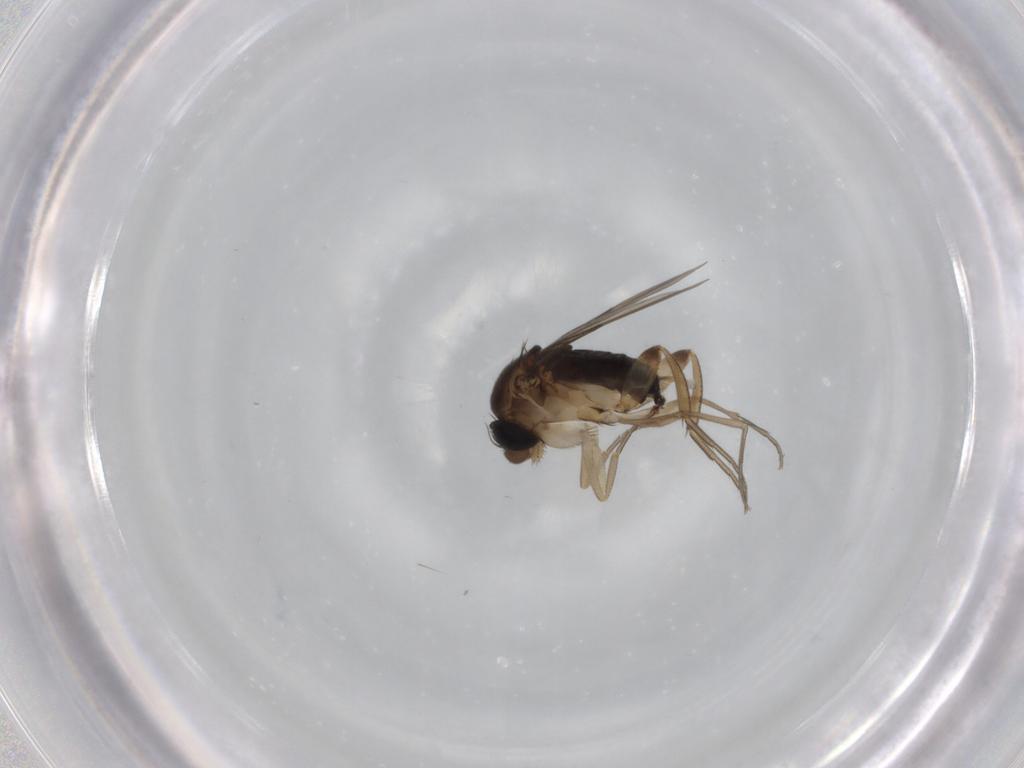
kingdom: Animalia
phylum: Arthropoda
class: Insecta
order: Diptera
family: Phoridae
